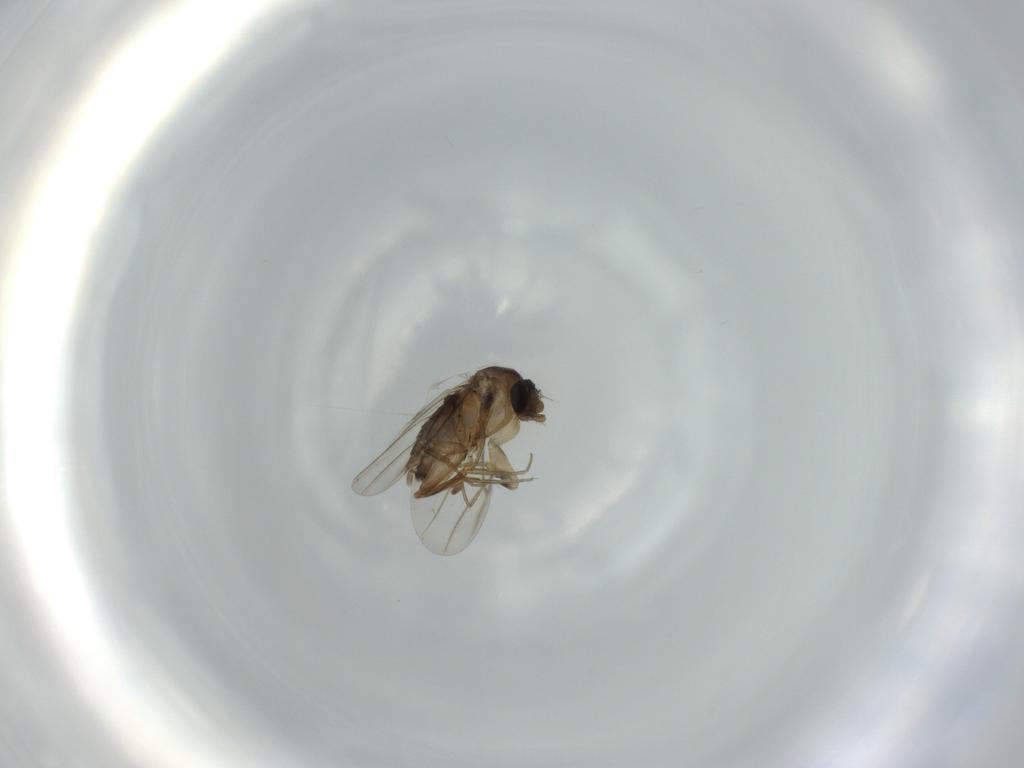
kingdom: Animalia
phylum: Arthropoda
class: Insecta
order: Diptera
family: Phoridae
